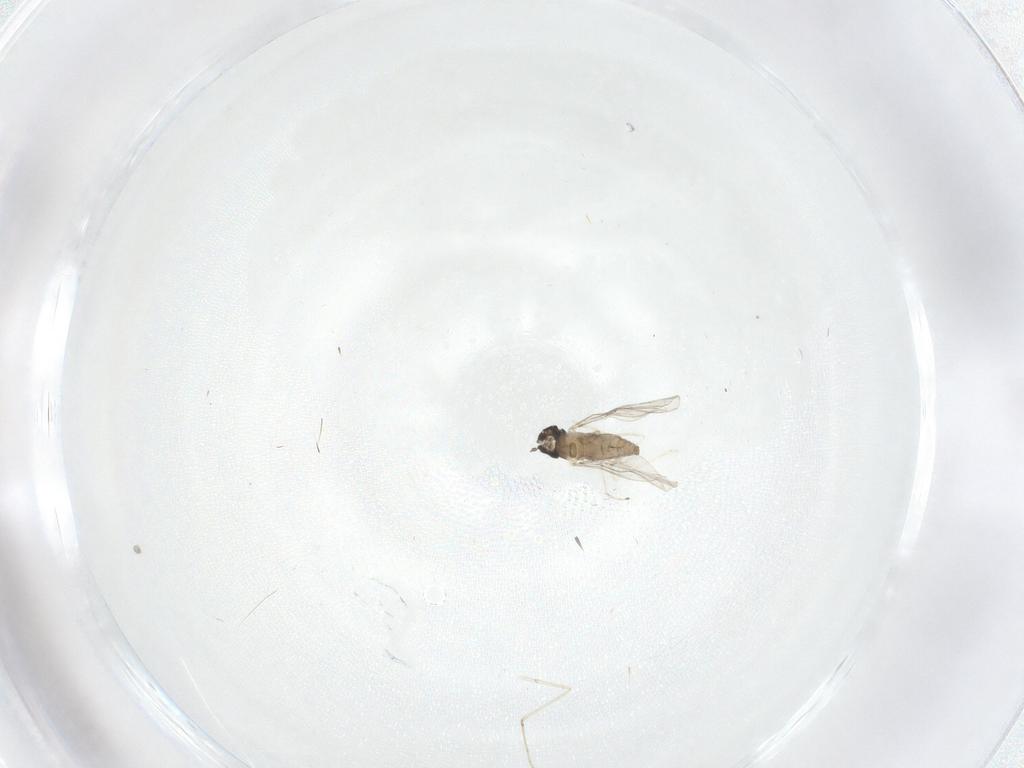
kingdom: Animalia
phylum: Arthropoda
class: Insecta
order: Diptera
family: Cecidomyiidae
